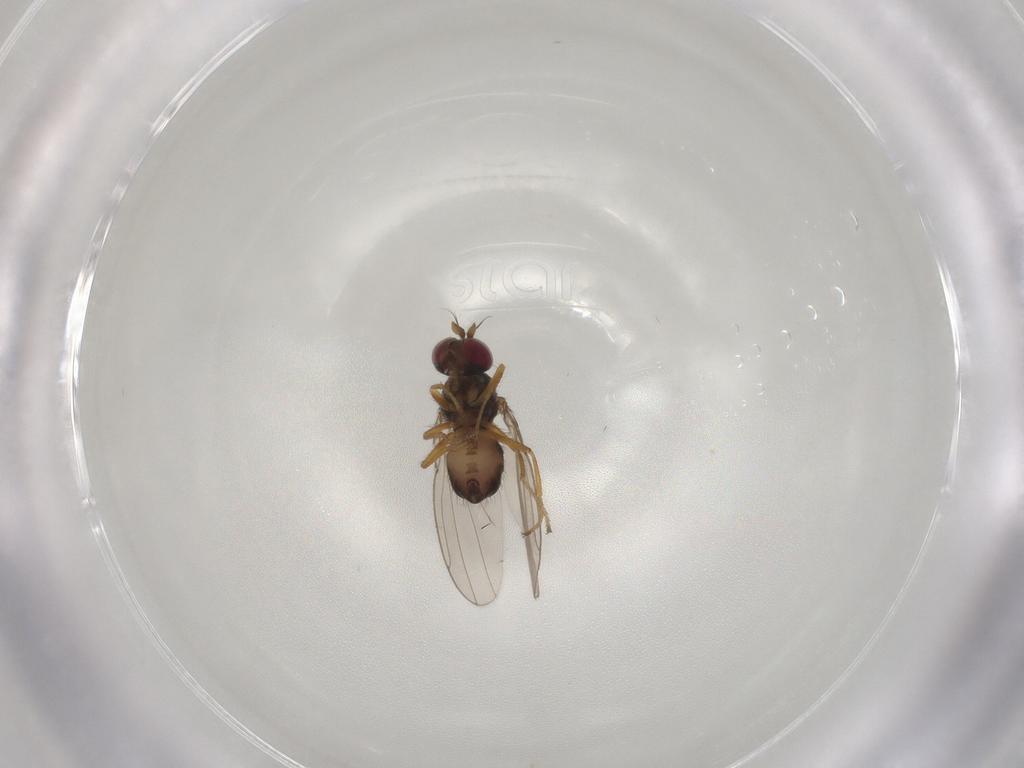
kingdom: Animalia
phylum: Arthropoda
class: Insecta
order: Diptera
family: Ephydridae
